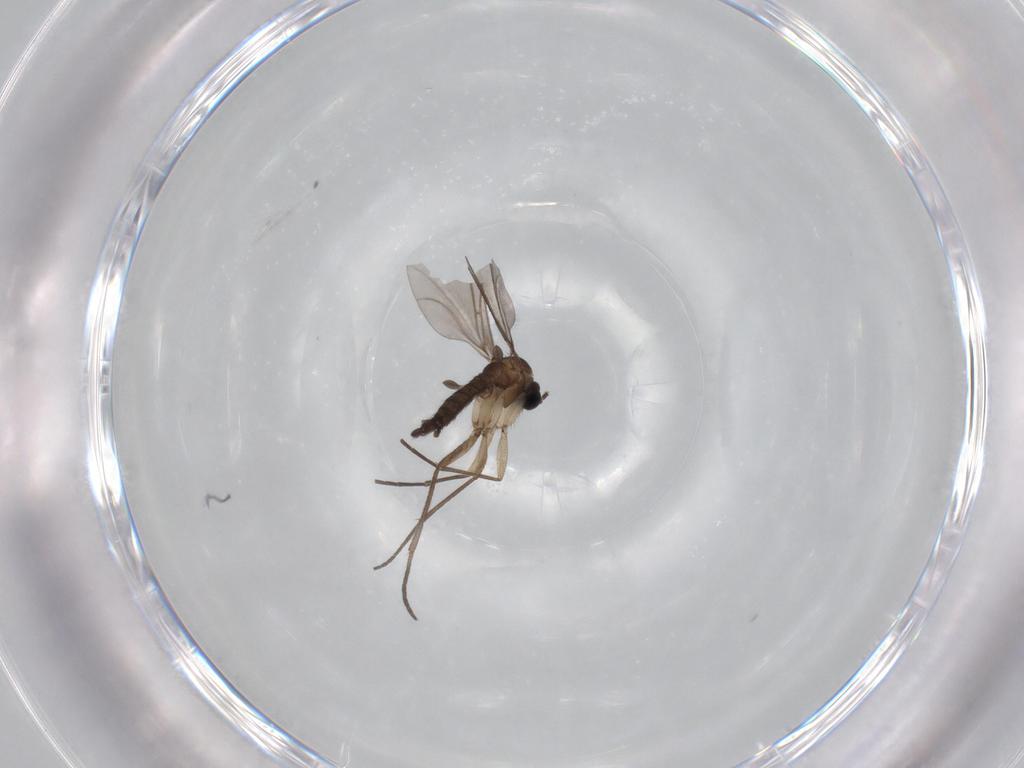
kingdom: Animalia
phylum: Arthropoda
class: Insecta
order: Diptera
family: Sciaridae
